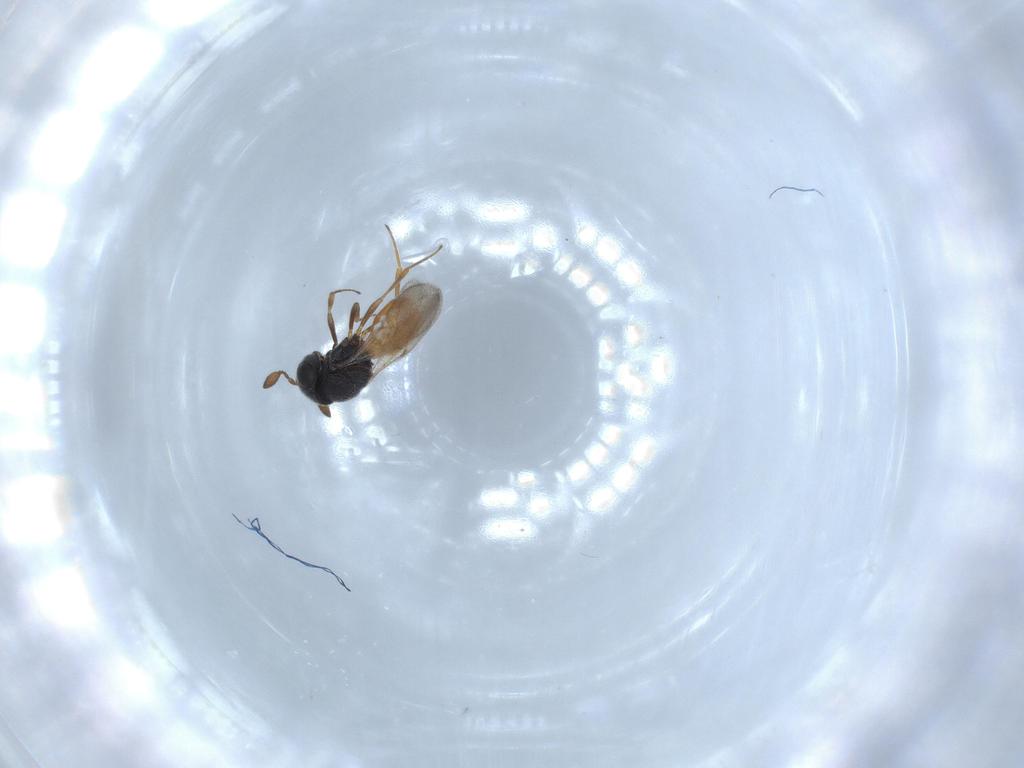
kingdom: Animalia
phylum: Arthropoda
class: Insecta
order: Hymenoptera
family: Scelionidae
